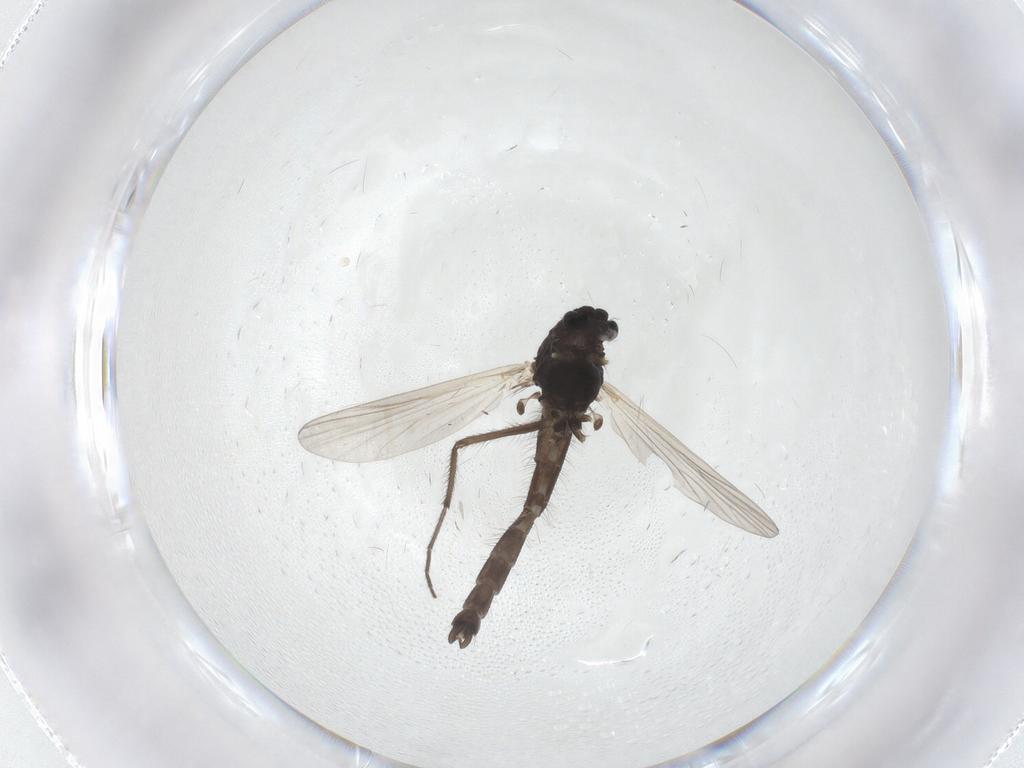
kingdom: Animalia
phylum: Arthropoda
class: Insecta
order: Diptera
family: Chironomidae
